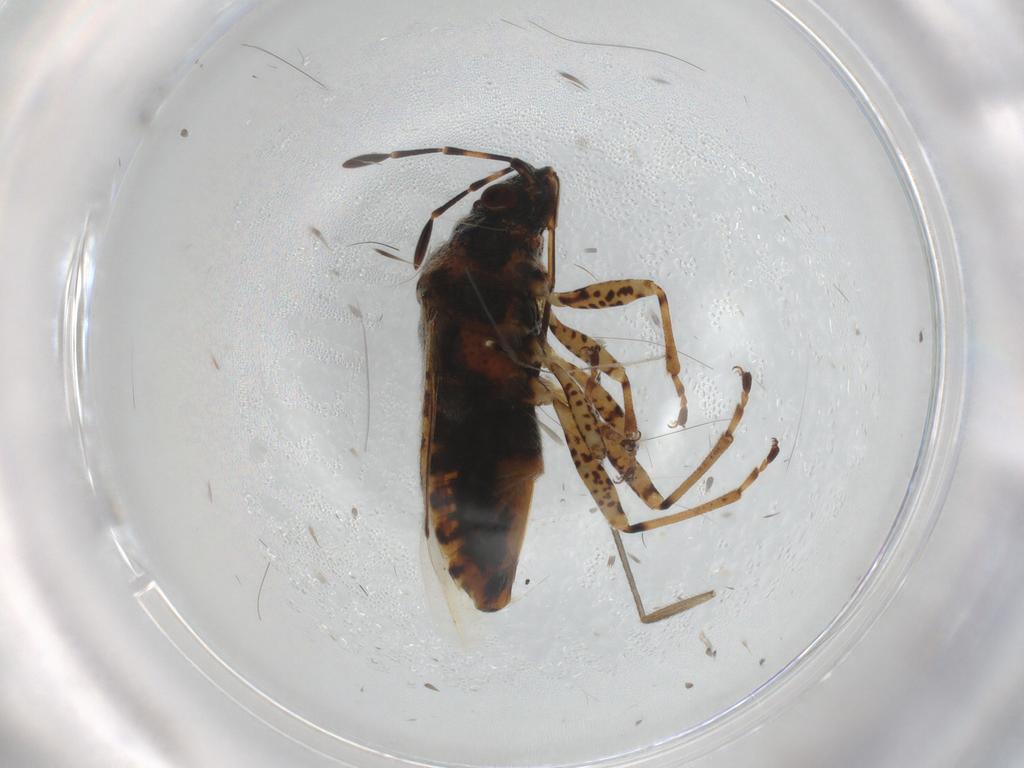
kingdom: Animalia
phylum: Arthropoda
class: Insecta
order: Hemiptera
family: Lygaeidae
